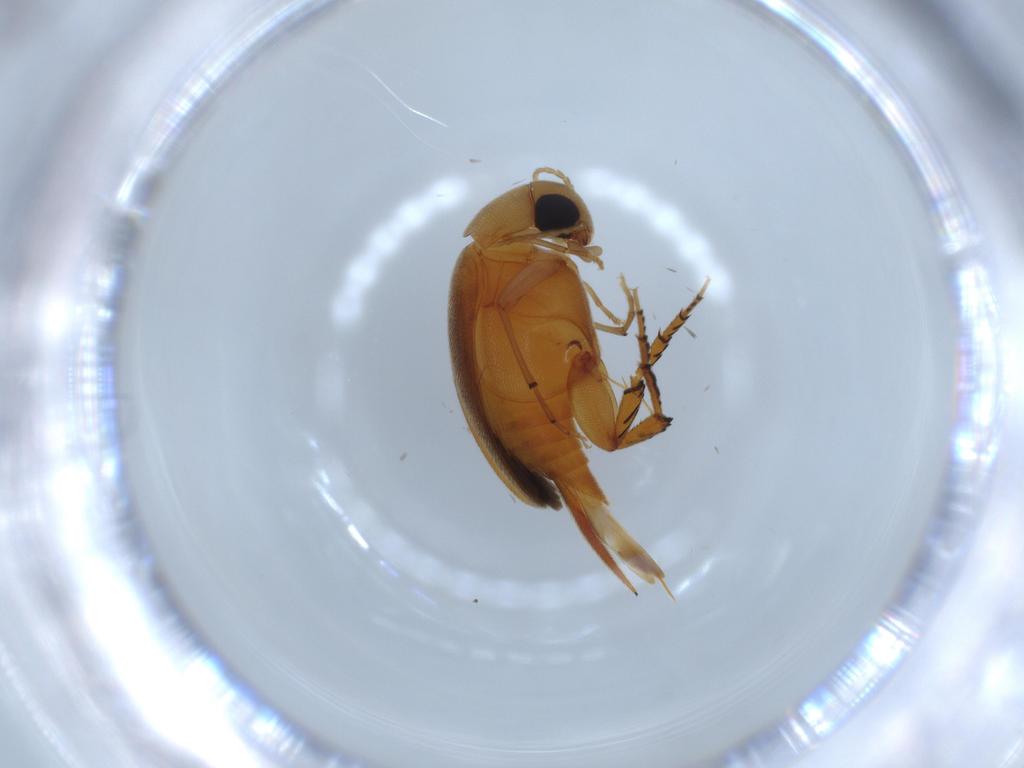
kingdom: Animalia
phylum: Arthropoda
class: Insecta
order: Coleoptera
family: Mordellidae
